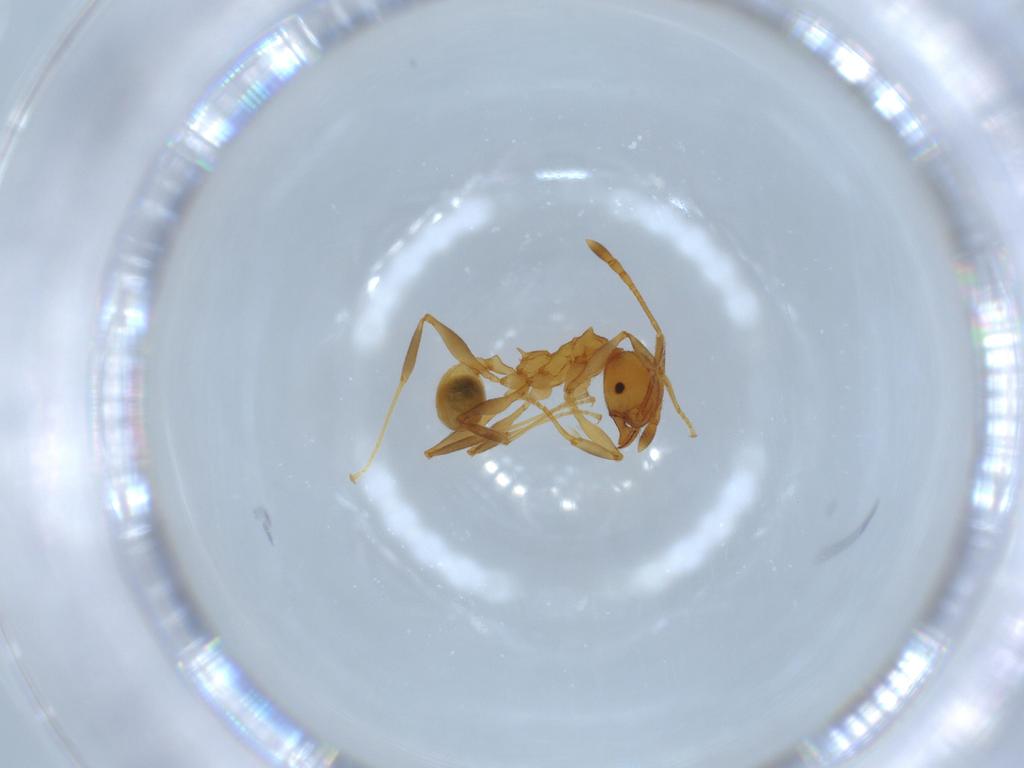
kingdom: Animalia
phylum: Arthropoda
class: Insecta
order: Hymenoptera
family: Formicidae
